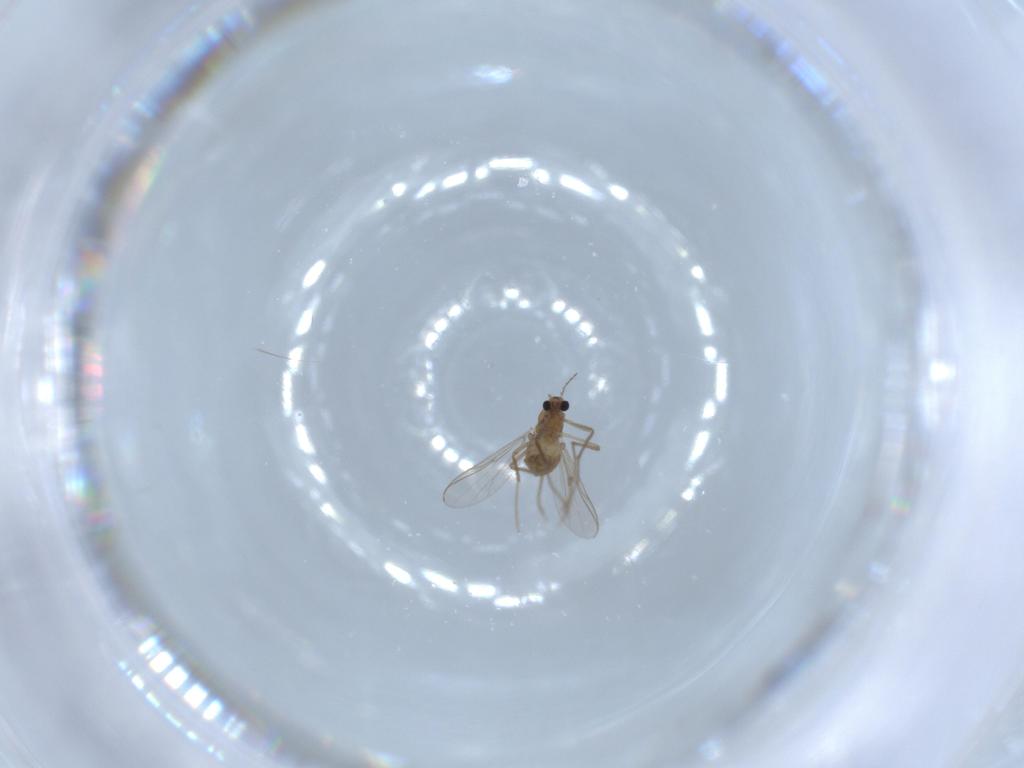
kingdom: Animalia
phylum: Arthropoda
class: Insecta
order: Diptera
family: Chironomidae
